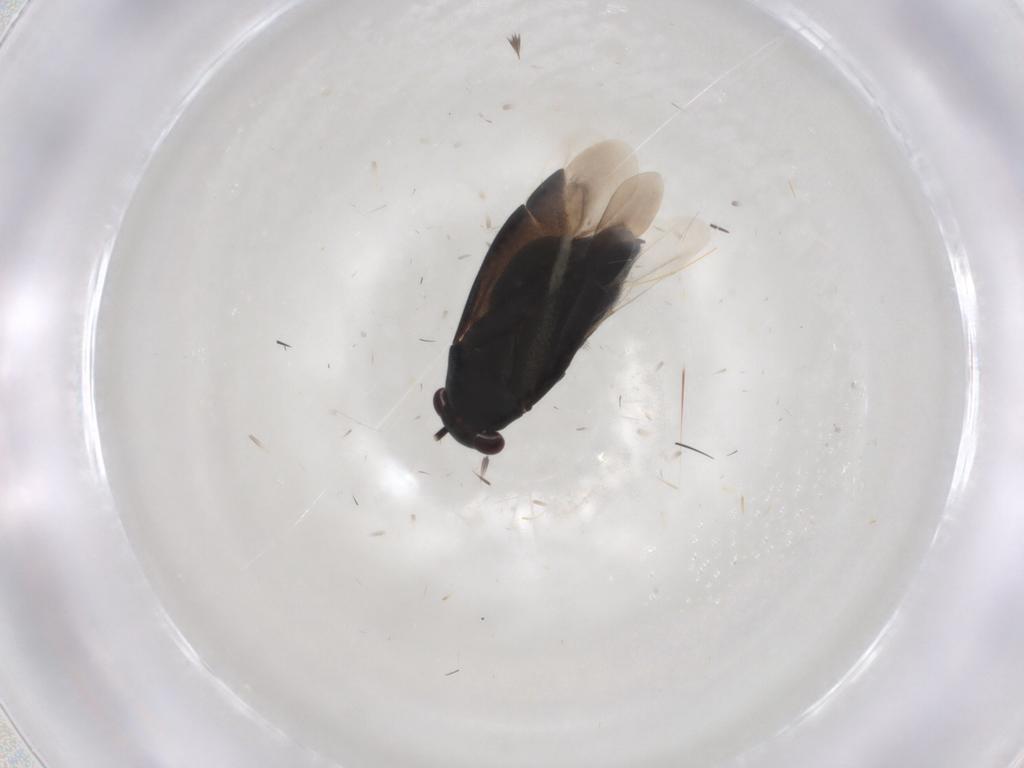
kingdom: Animalia
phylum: Arthropoda
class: Insecta
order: Hemiptera
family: Miridae
